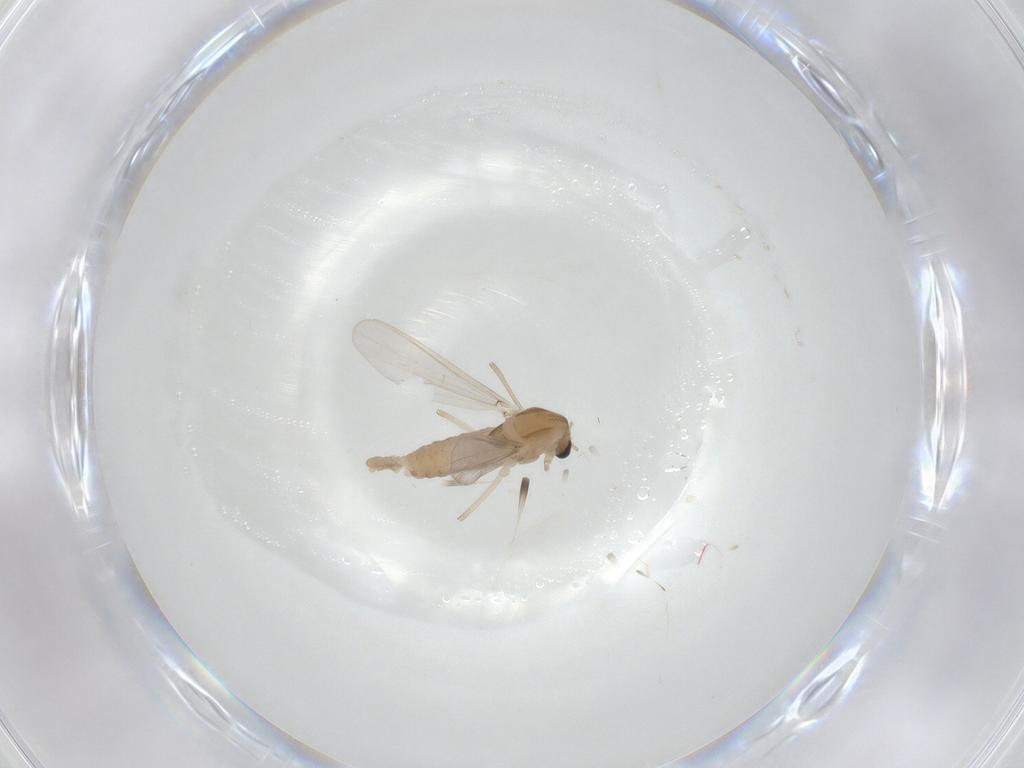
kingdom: Animalia
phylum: Arthropoda
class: Insecta
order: Diptera
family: Chironomidae
